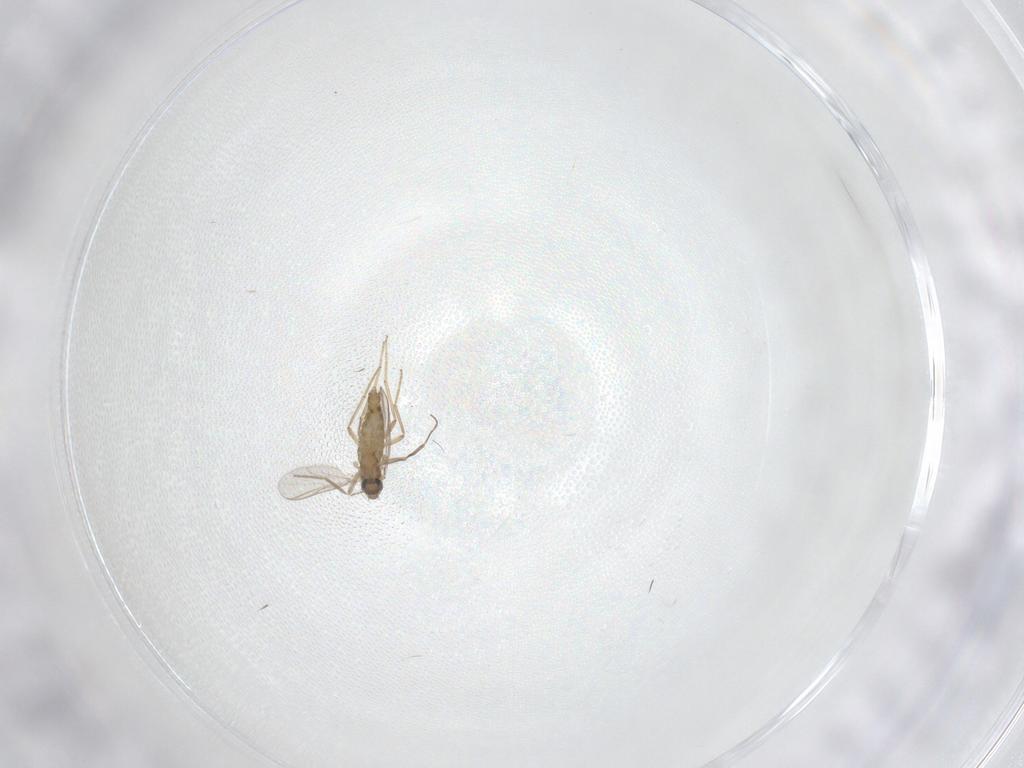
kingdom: Animalia
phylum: Arthropoda
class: Insecta
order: Diptera
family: Chironomidae
